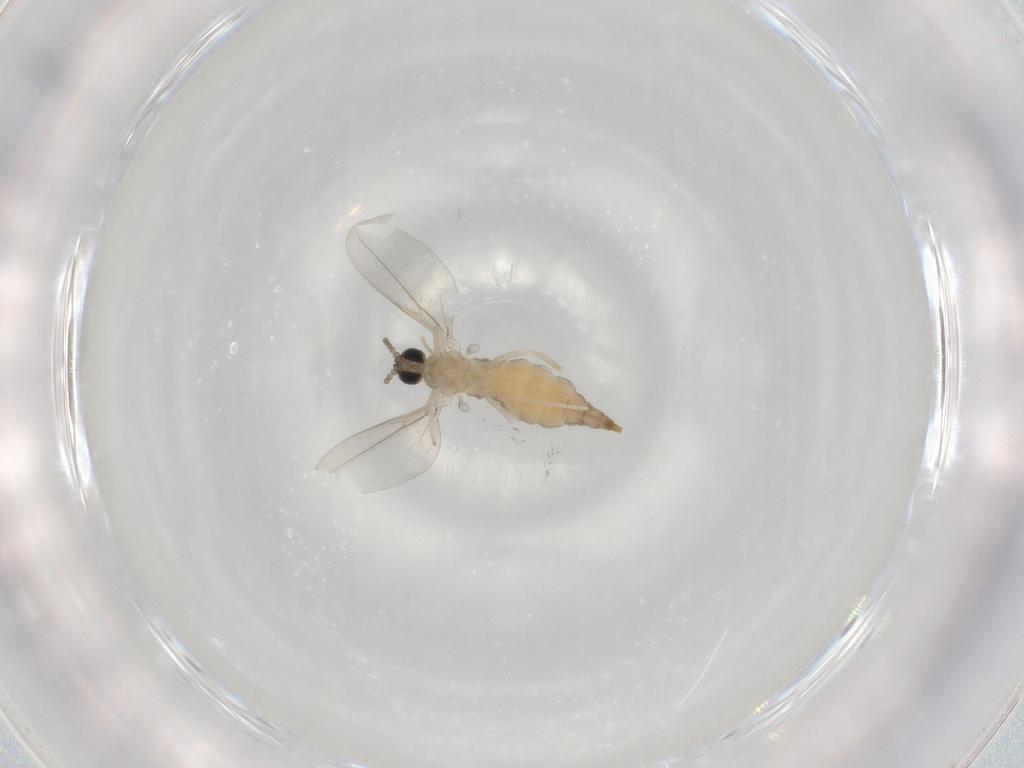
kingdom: Animalia
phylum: Arthropoda
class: Insecta
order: Diptera
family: Cecidomyiidae
